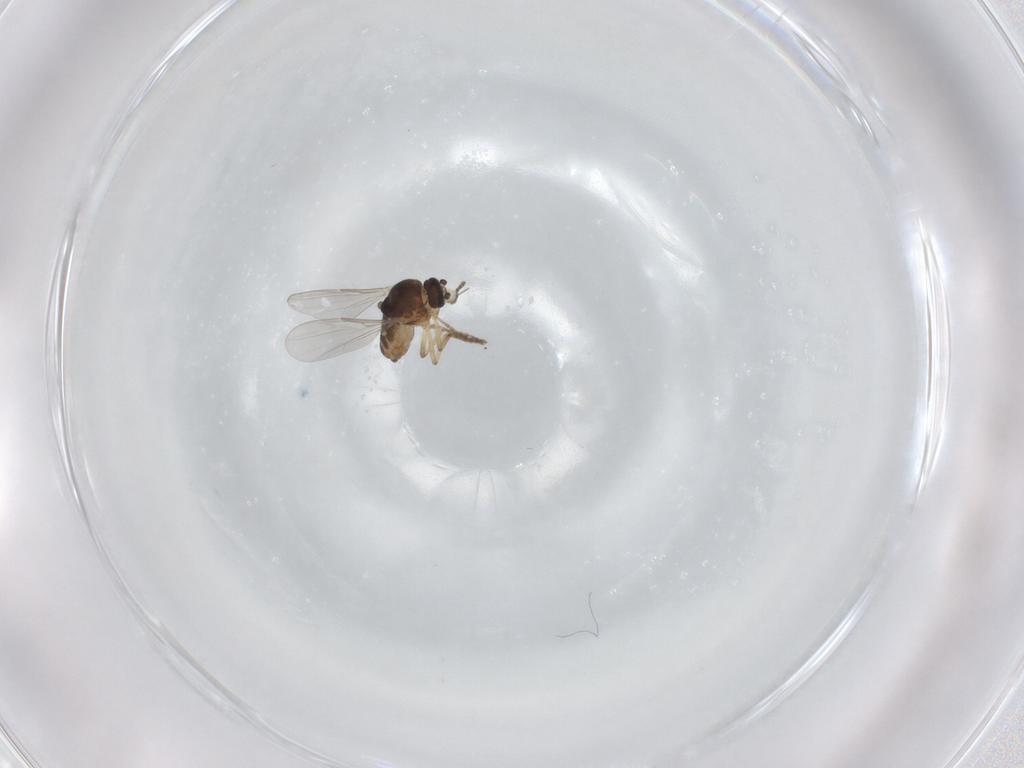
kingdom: Animalia
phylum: Arthropoda
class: Insecta
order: Diptera
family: Chironomidae
